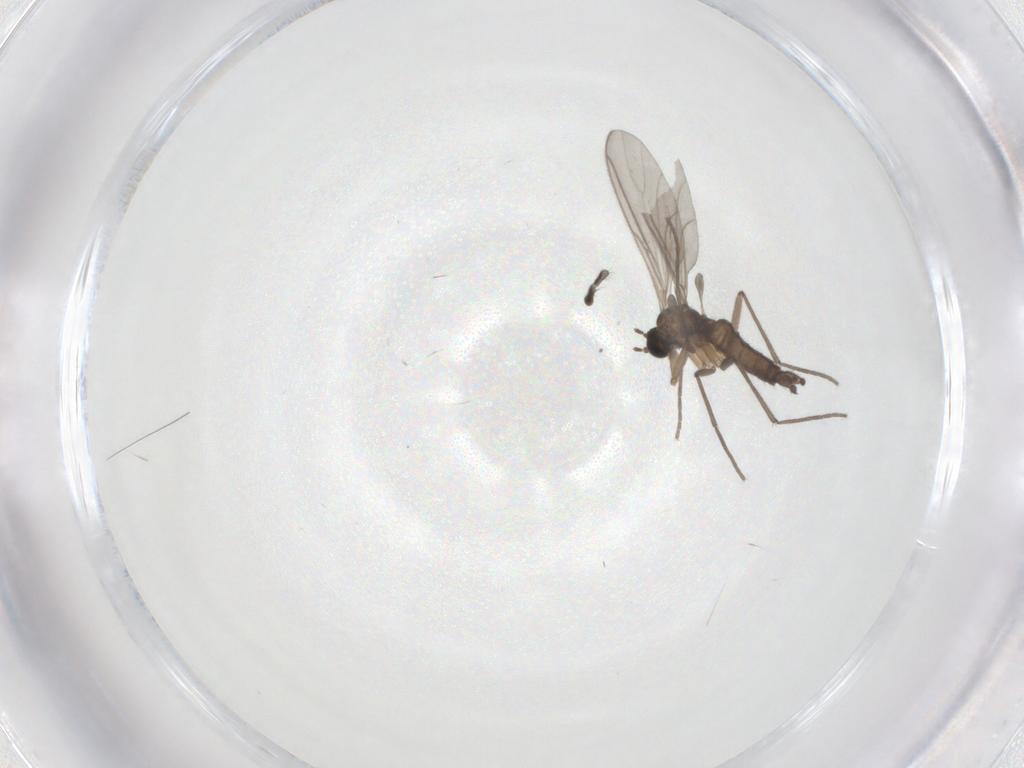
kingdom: Animalia
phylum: Arthropoda
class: Insecta
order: Diptera
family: Sciaridae
